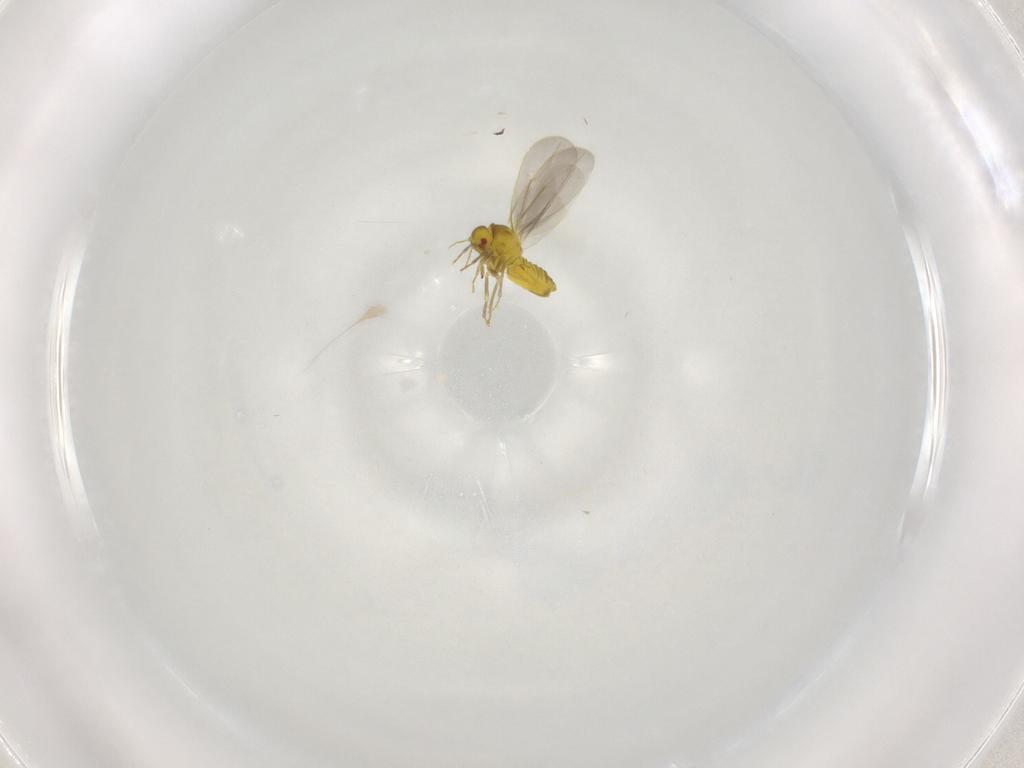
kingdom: Animalia
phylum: Arthropoda
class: Insecta
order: Hemiptera
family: Aleyrodidae
